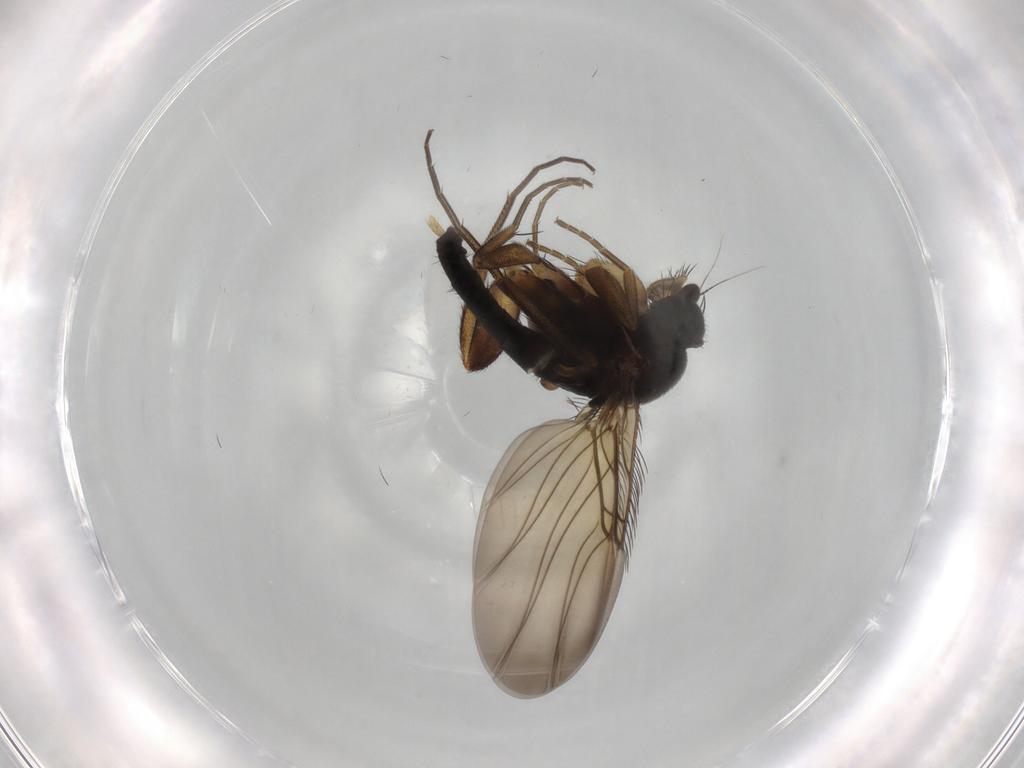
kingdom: Animalia
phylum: Arthropoda
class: Insecta
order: Diptera
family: Phoridae
